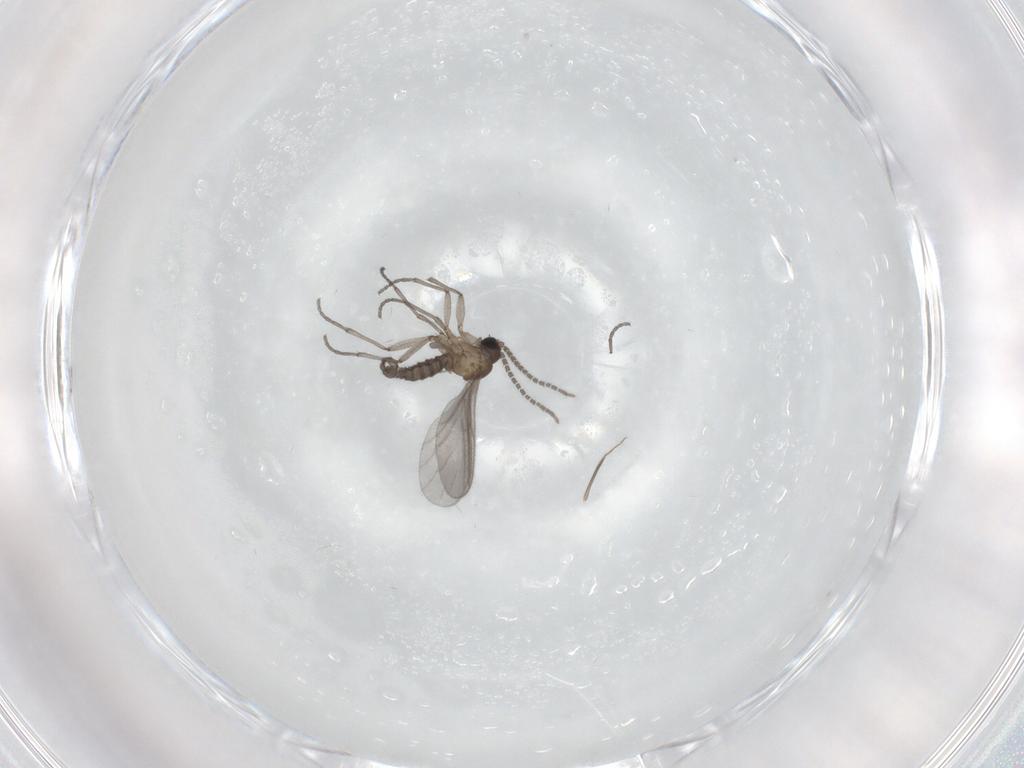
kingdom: Animalia
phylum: Arthropoda
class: Insecta
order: Diptera
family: Sciaridae
